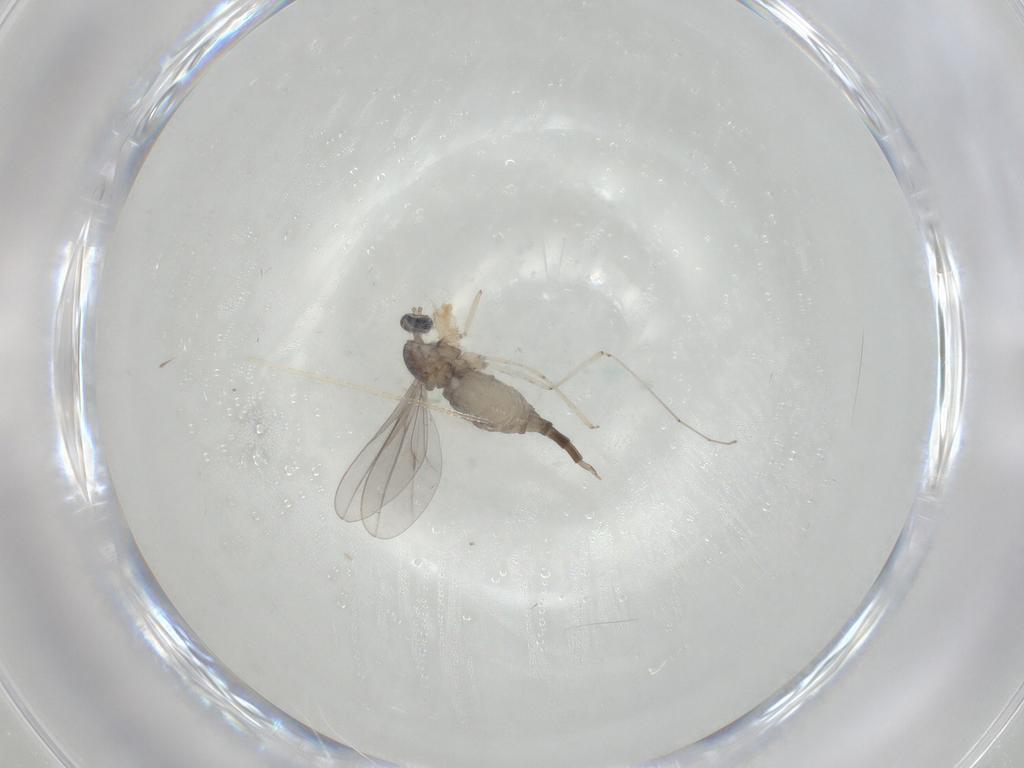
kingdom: Animalia
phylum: Arthropoda
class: Insecta
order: Diptera
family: Cecidomyiidae
